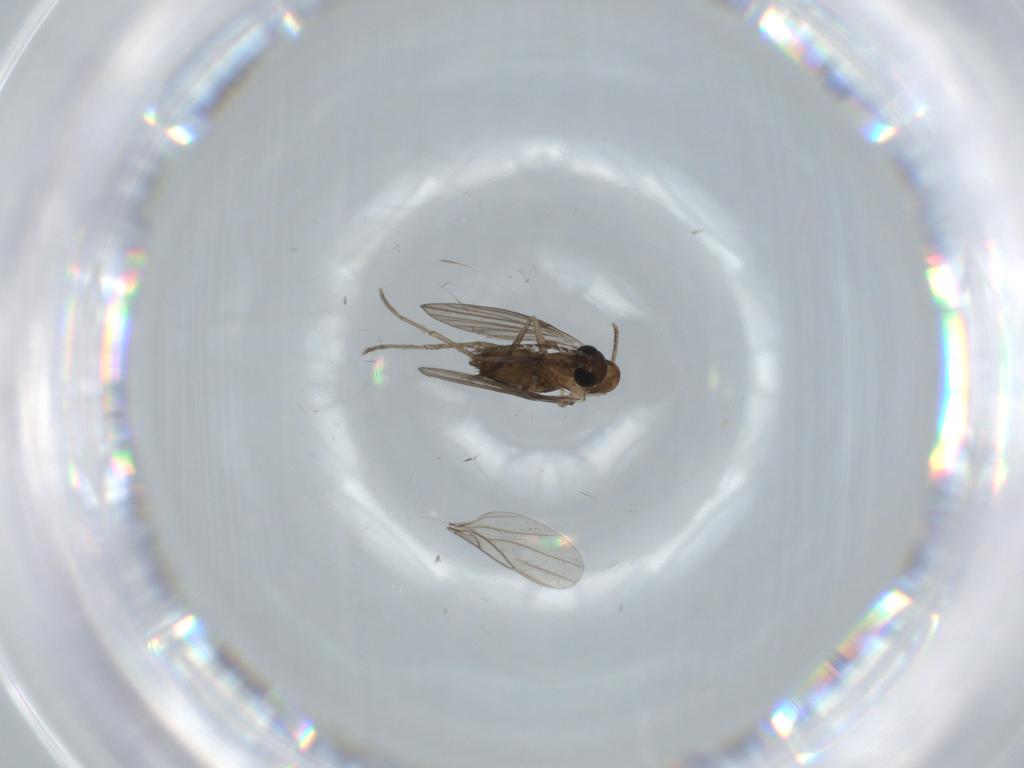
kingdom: Animalia
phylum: Arthropoda
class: Insecta
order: Diptera
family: Psychodidae
